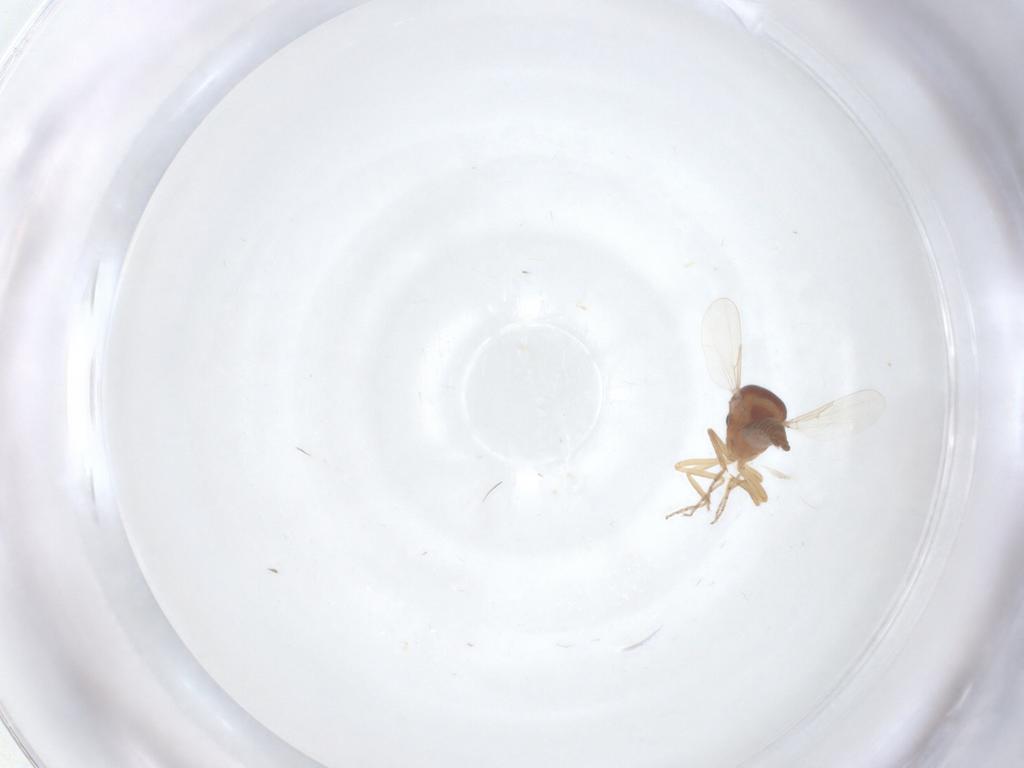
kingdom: Animalia
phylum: Arthropoda
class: Insecta
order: Diptera
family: Ceratopogonidae
